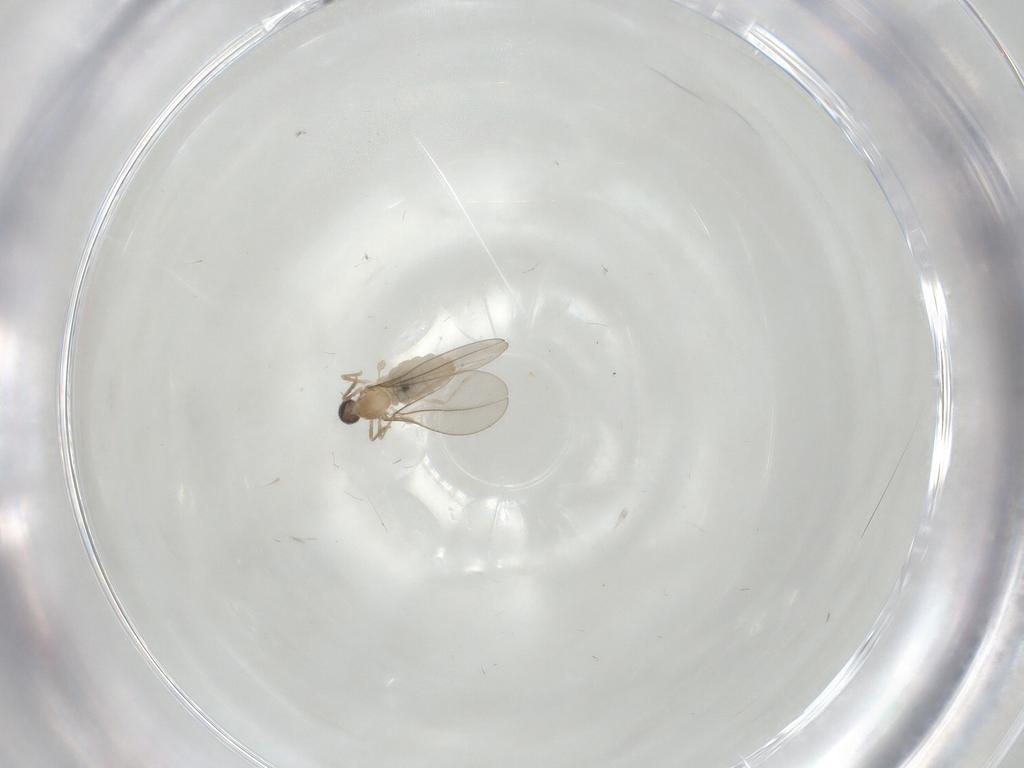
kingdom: Animalia
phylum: Arthropoda
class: Insecta
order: Diptera
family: Cecidomyiidae
